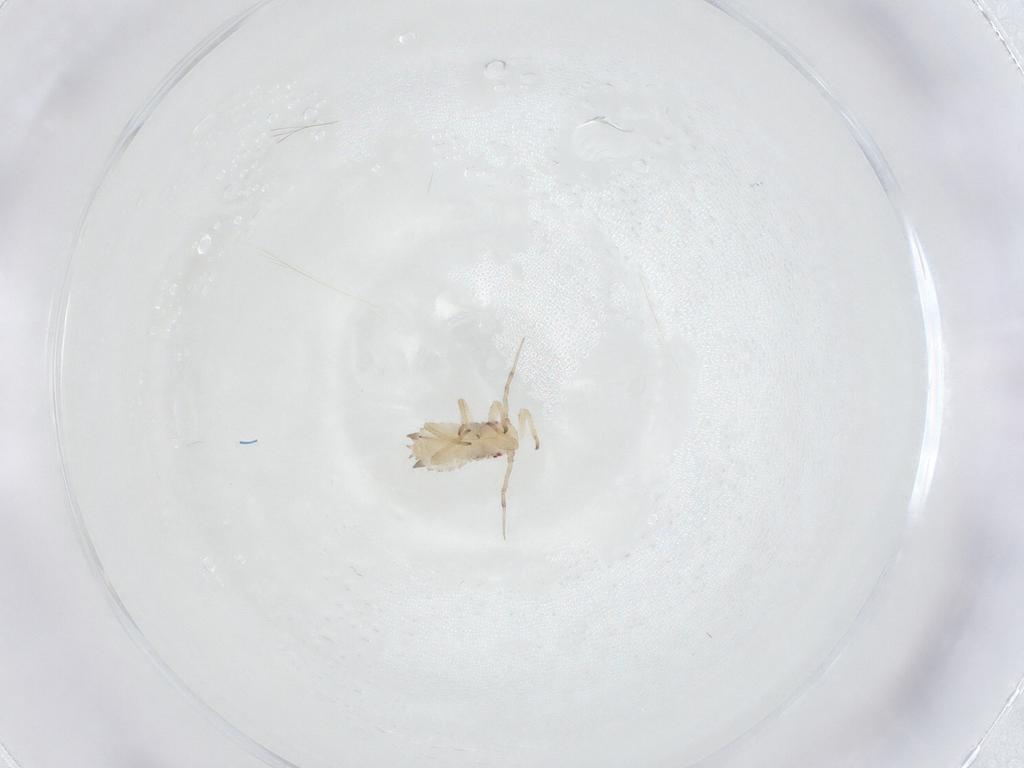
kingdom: Animalia
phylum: Arthropoda
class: Insecta
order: Hemiptera
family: Aphididae
